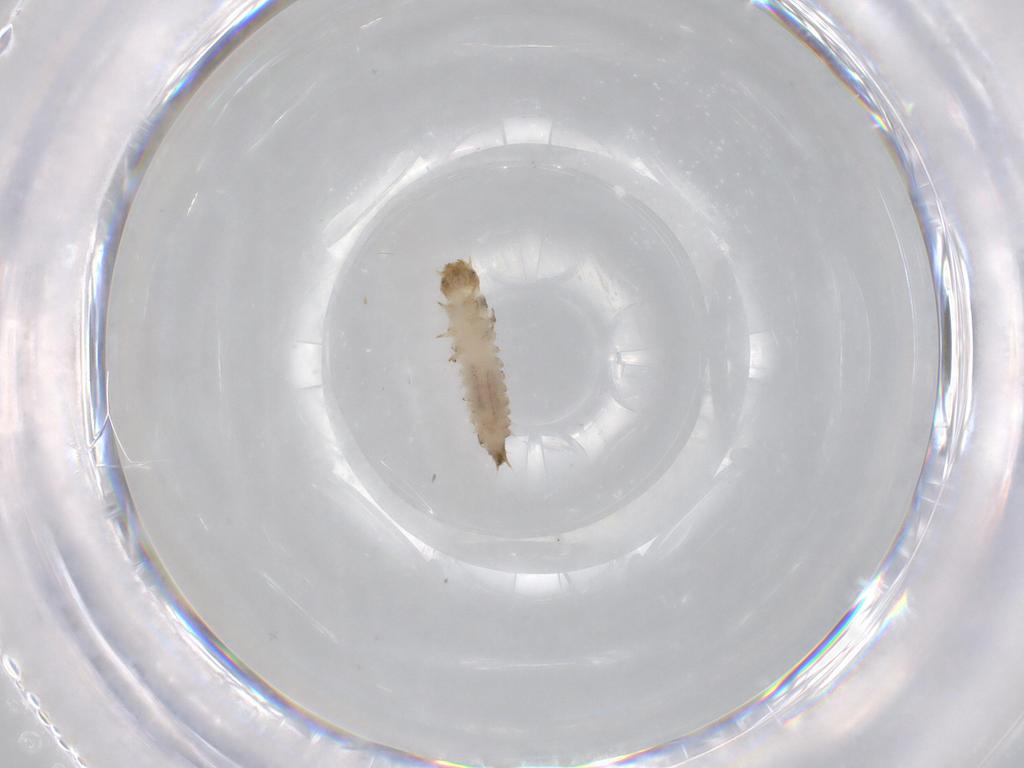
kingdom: Animalia
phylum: Arthropoda
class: Insecta
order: Coleoptera
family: Nitidulidae
